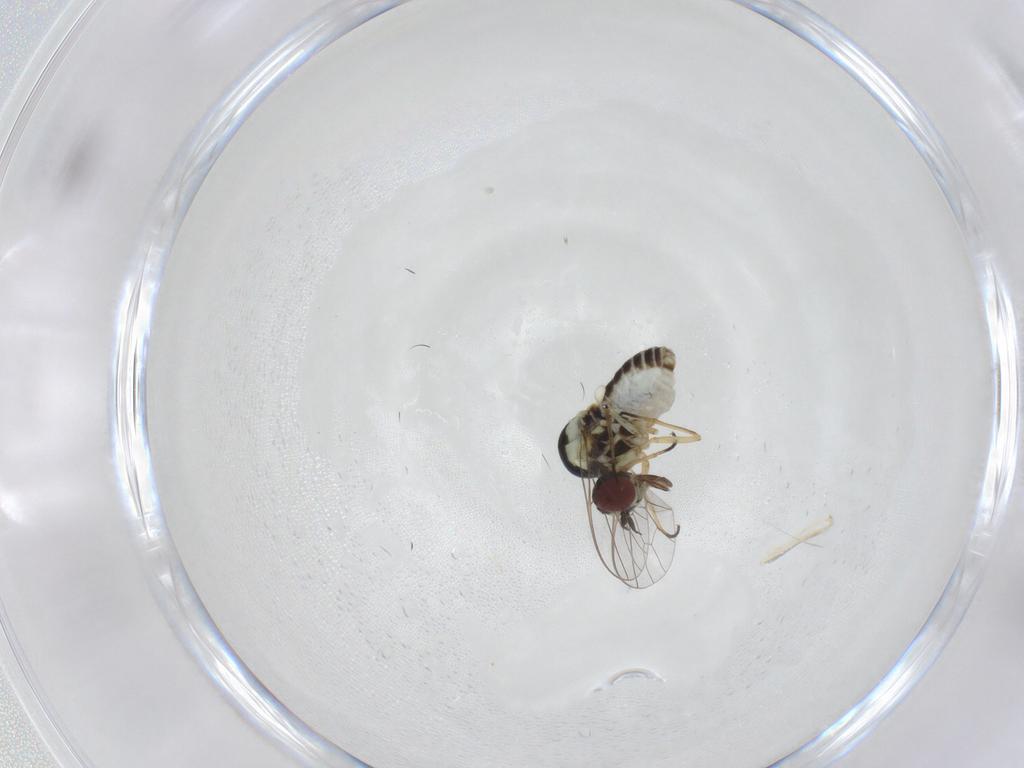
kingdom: Animalia
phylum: Arthropoda
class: Insecta
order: Diptera
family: Bombyliidae
